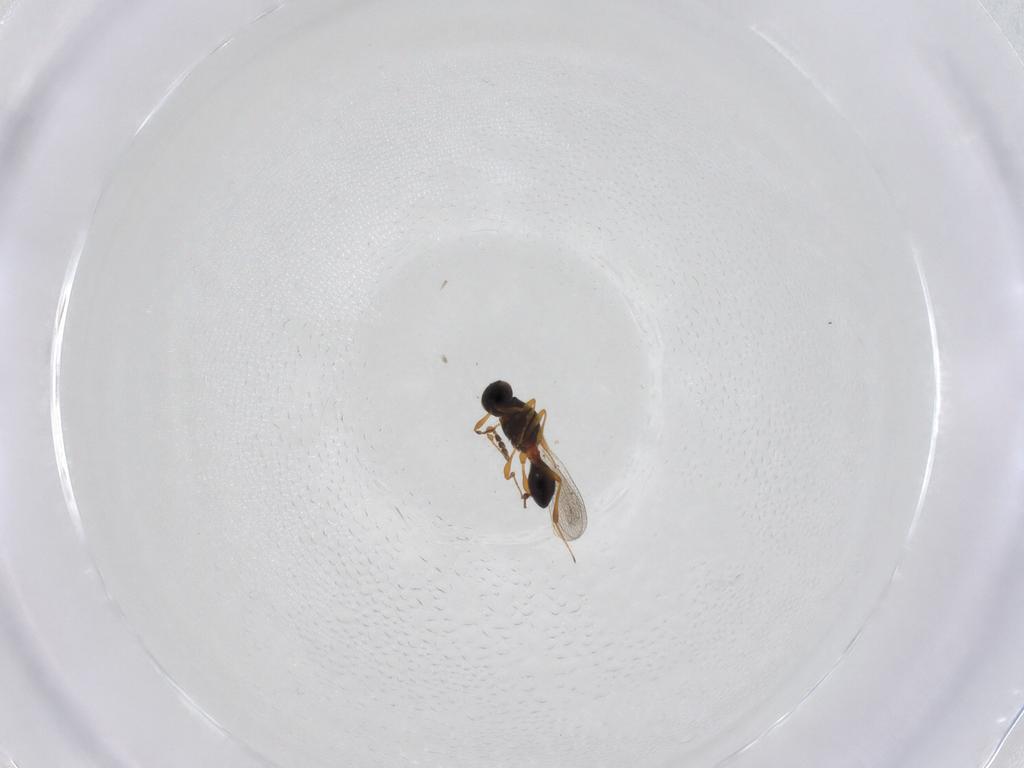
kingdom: Animalia
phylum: Arthropoda
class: Insecta
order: Hymenoptera
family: Platygastridae
